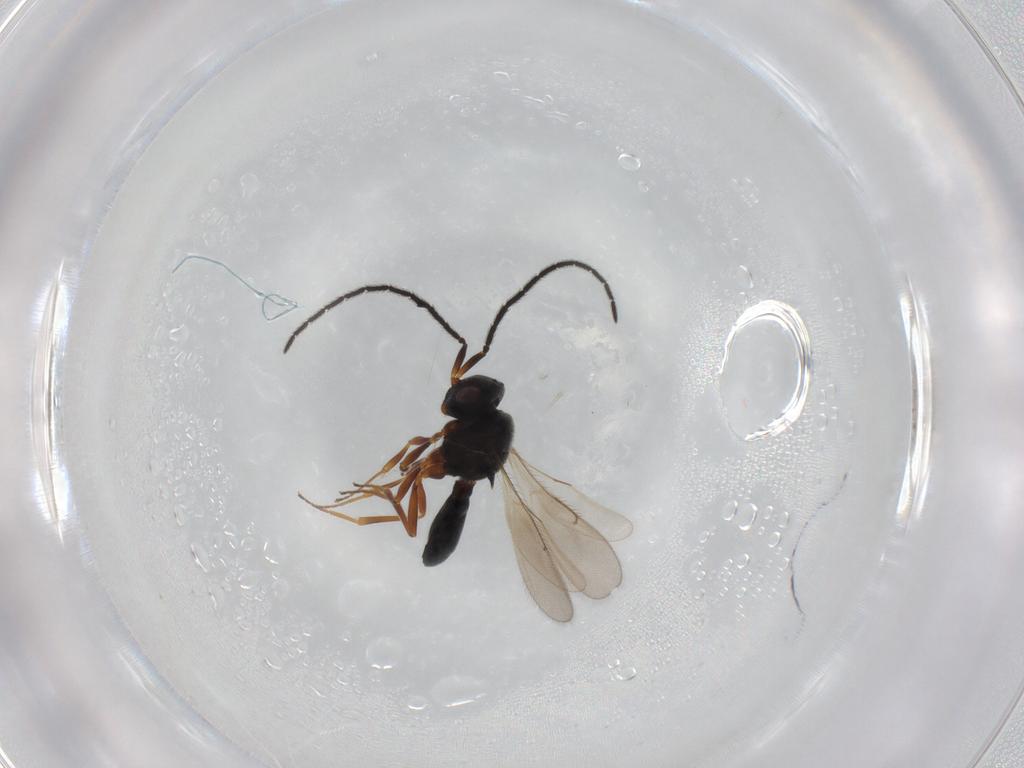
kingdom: Animalia
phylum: Arthropoda
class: Insecta
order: Hymenoptera
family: Scelionidae
